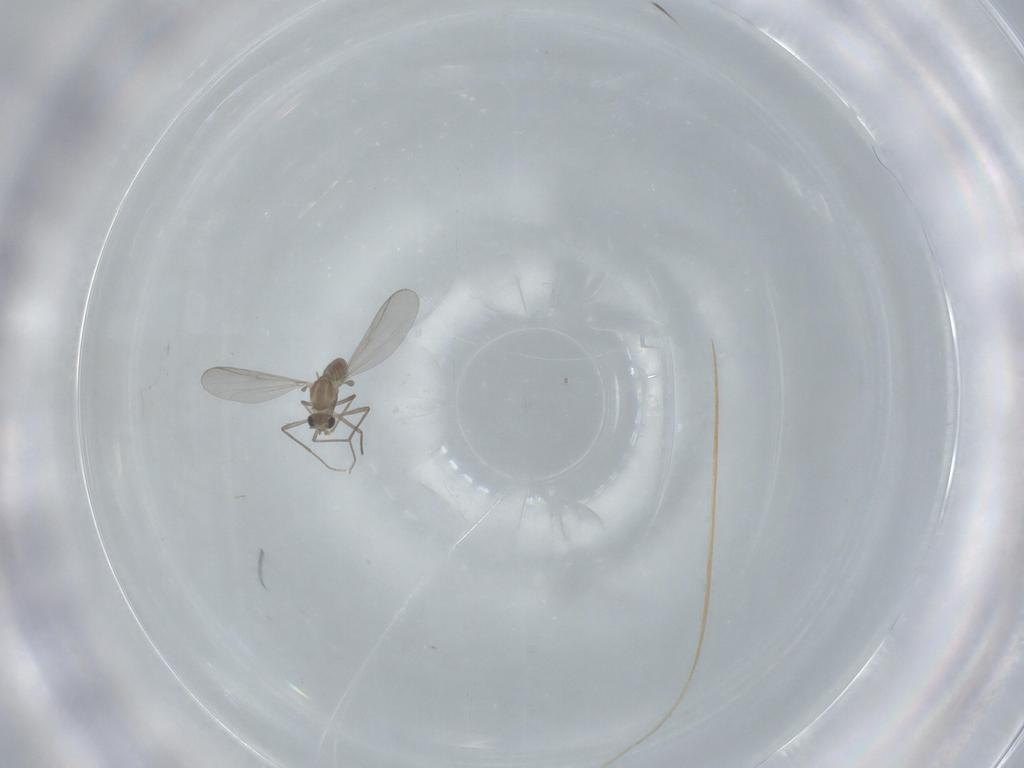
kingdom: Animalia
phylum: Arthropoda
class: Insecta
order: Diptera
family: Chironomidae
